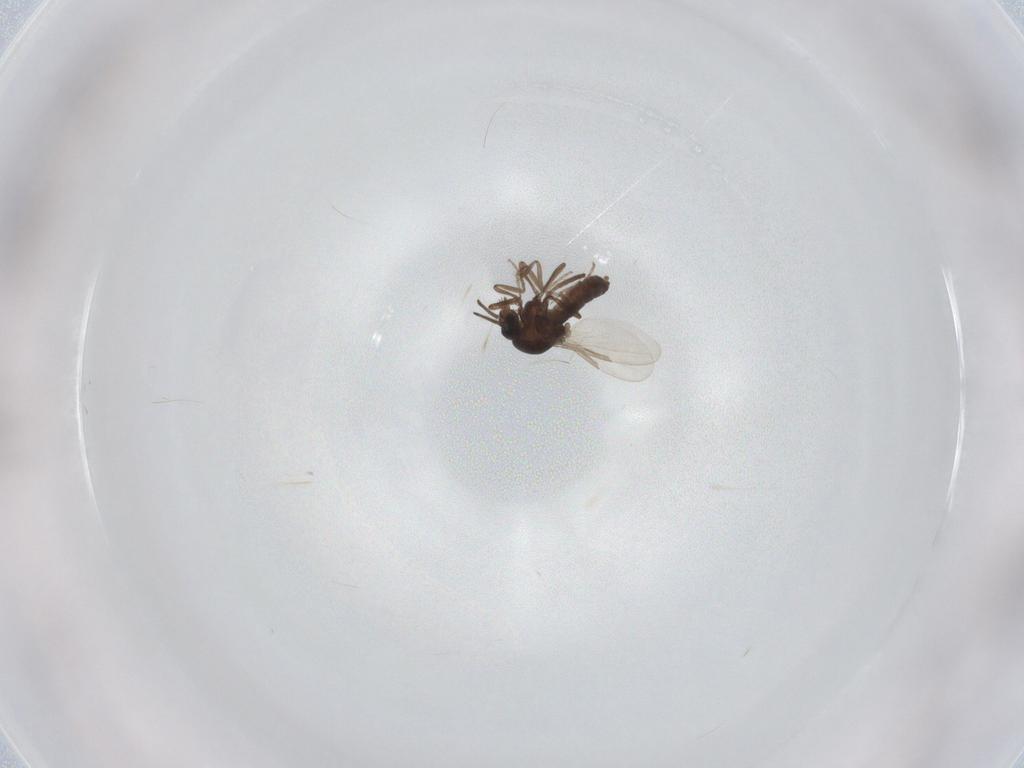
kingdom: Animalia
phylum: Arthropoda
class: Insecta
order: Diptera
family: Ceratopogonidae
